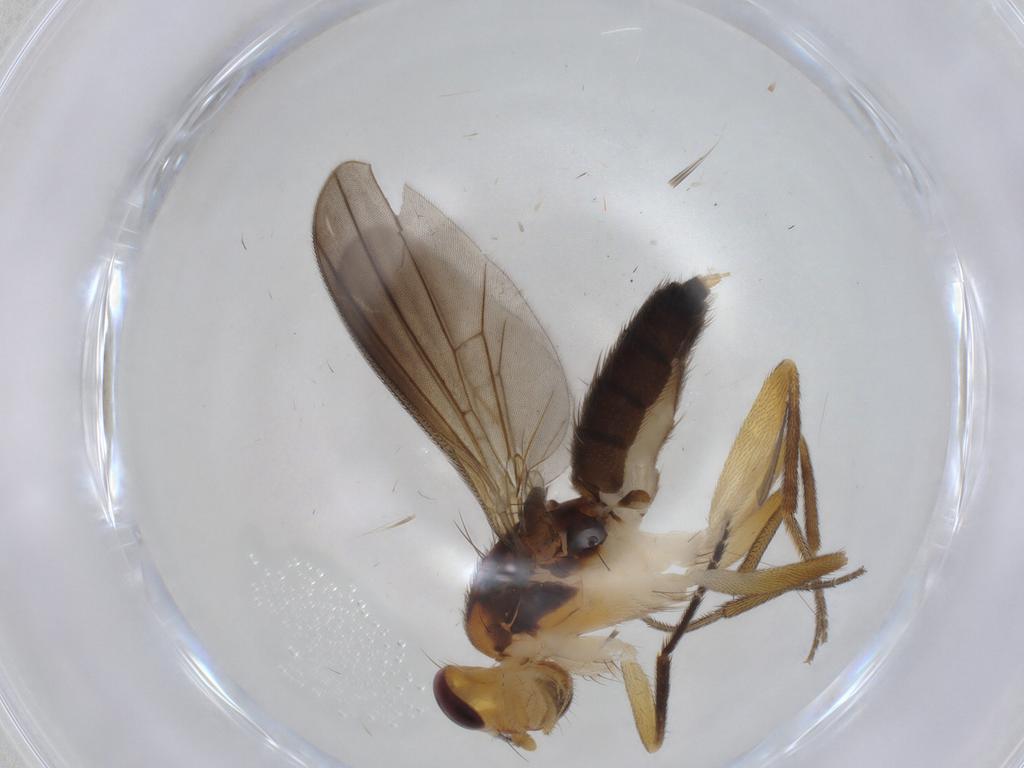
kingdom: Animalia
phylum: Arthropoda
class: Insecta
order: Diptera
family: Clusiidae
